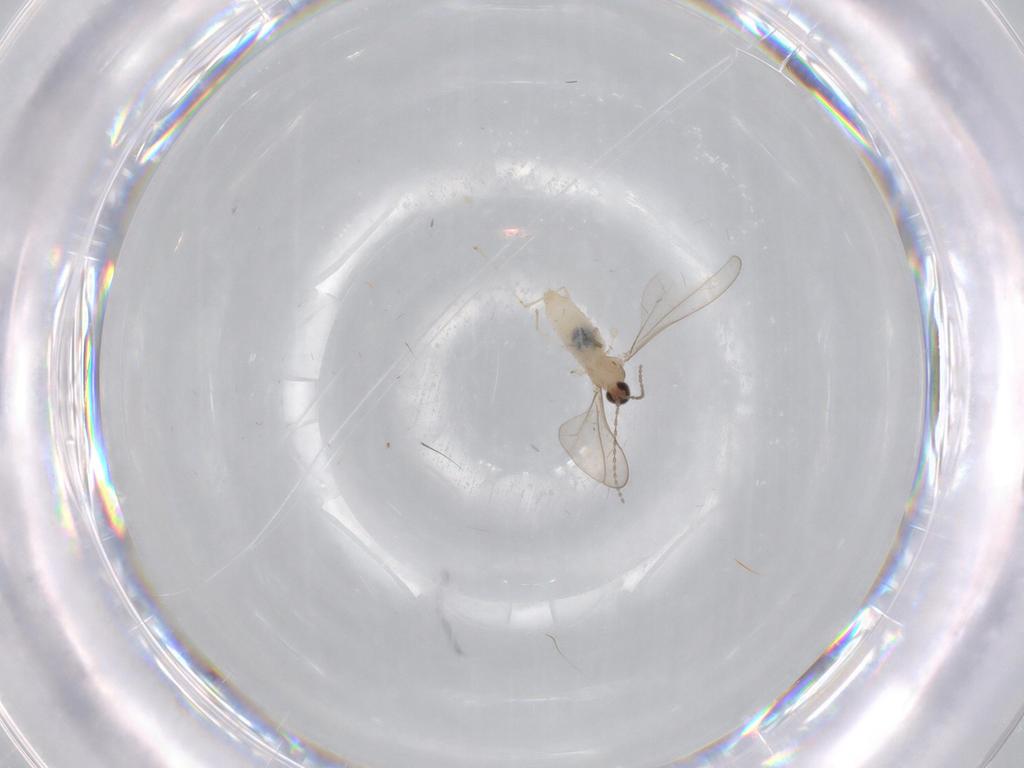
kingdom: Animalia
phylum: Arthropoda
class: Insecta
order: Diptera
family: Cecidomyiidae
